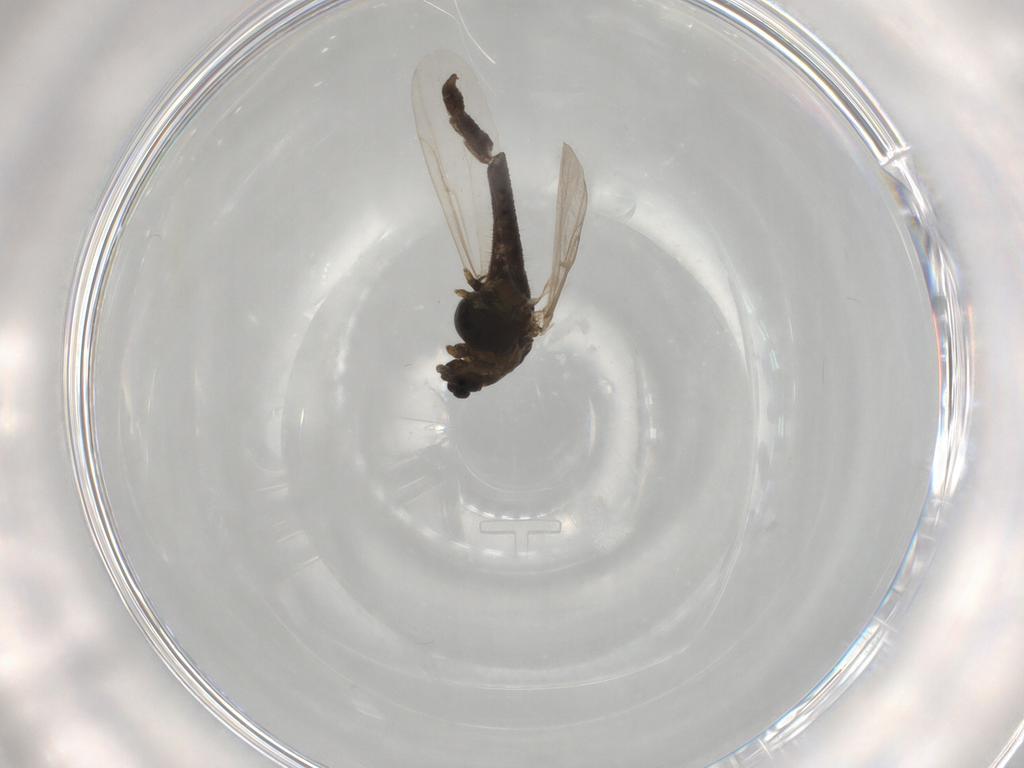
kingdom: Animalia
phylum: Arthropoda
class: Insecta
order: Diptera
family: Chironomidae
